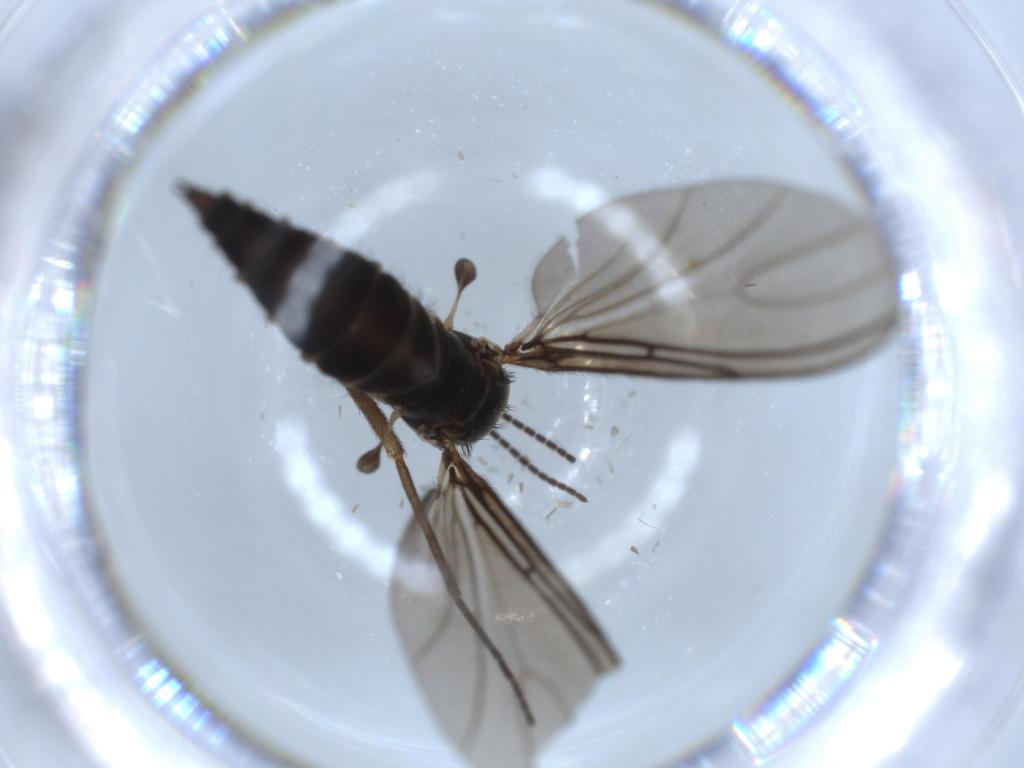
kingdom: Animalia
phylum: Arthropoda
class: Insecta
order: Diptera
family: Sciaridae
